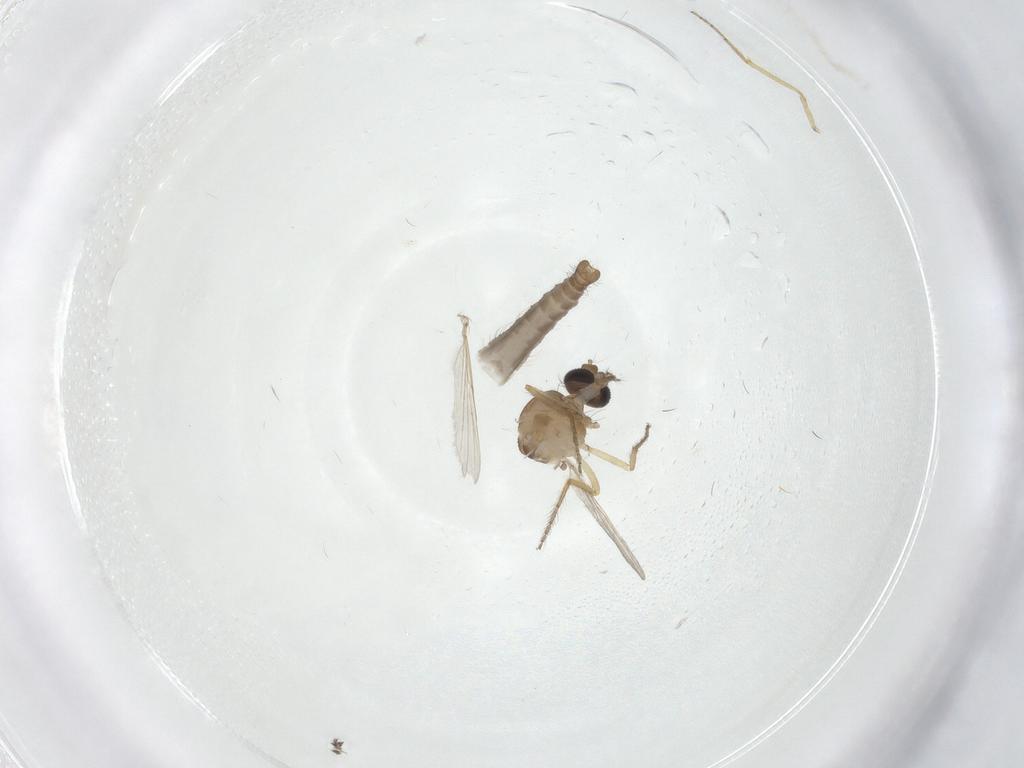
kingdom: Animalia
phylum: Arthropoda
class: Insecta
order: Diptera
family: Ceratopogonidae
